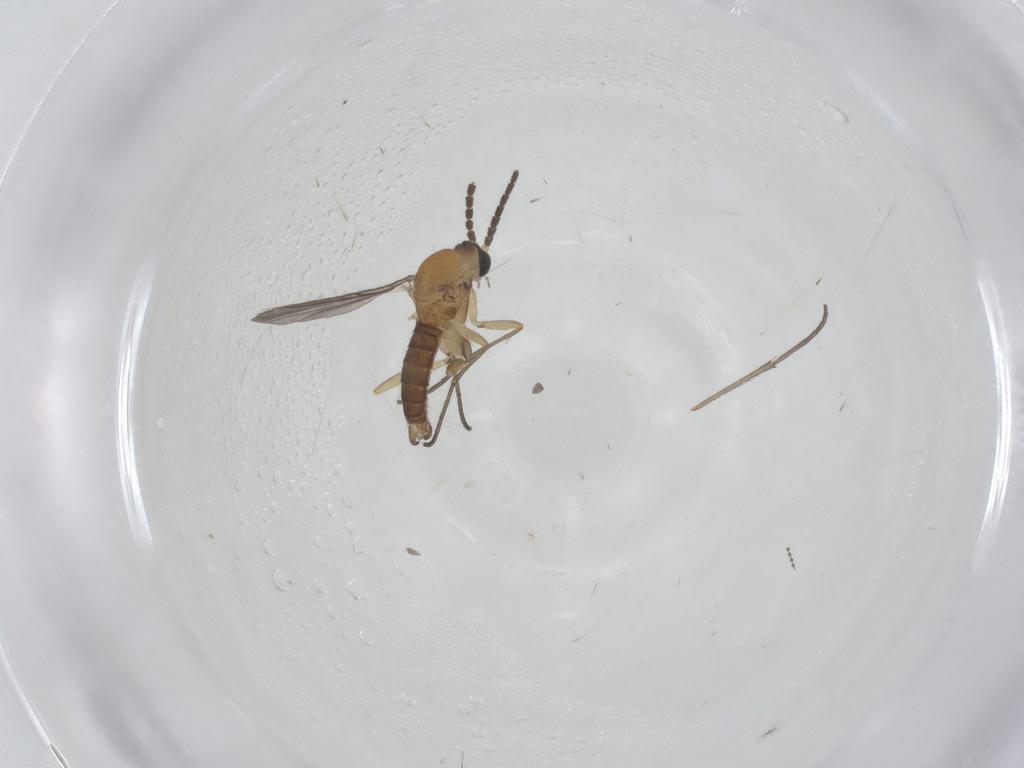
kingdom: Animalia
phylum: Arthropoda
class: Insecta
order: Diptera
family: Sciaridae
